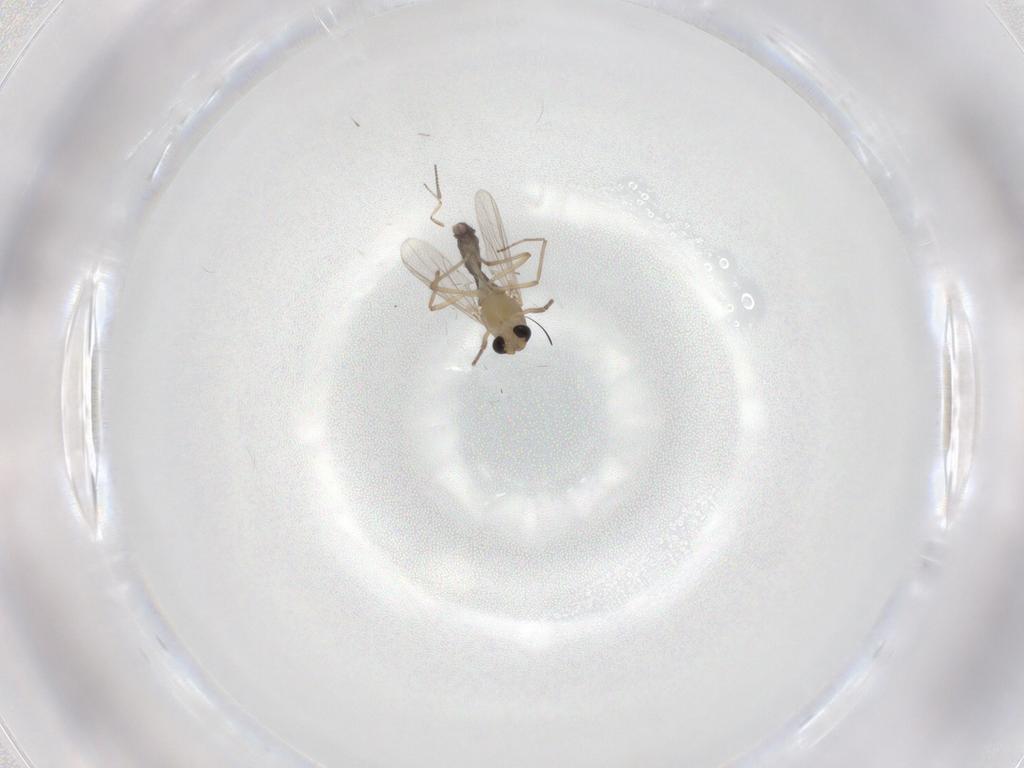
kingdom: Animalia
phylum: Arthropoda
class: Insecta
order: Diptera
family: Chironomidae
